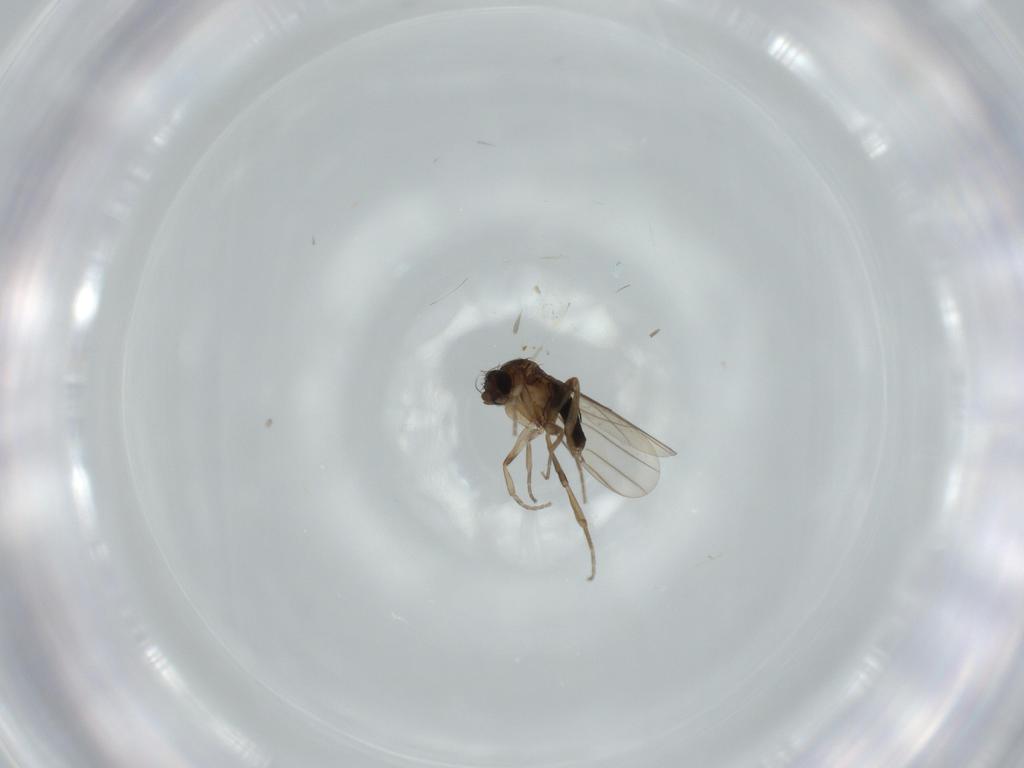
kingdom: Animalia
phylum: Arthropoda
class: Insecta
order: Diptera
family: Phoridae
